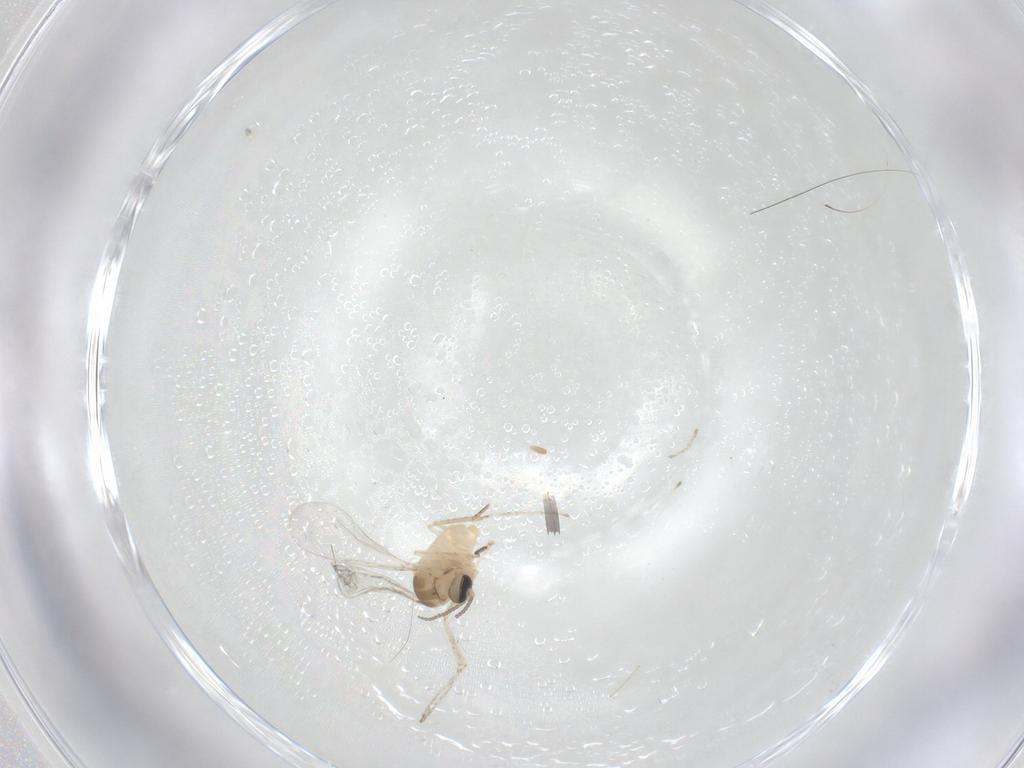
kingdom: Animalia
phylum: Arthropoda
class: Insecta
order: Diptera
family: Cecidomyiidae
